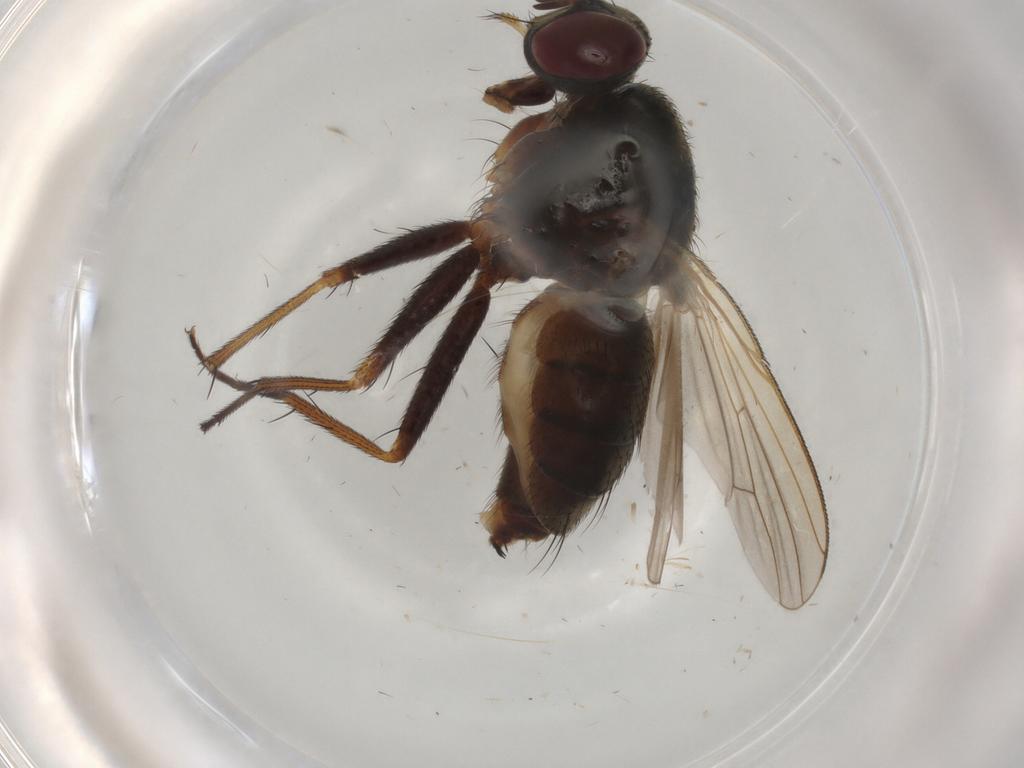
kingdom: Animalia
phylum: Arthropoda
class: Insecta
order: Diptera
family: Muscidae
